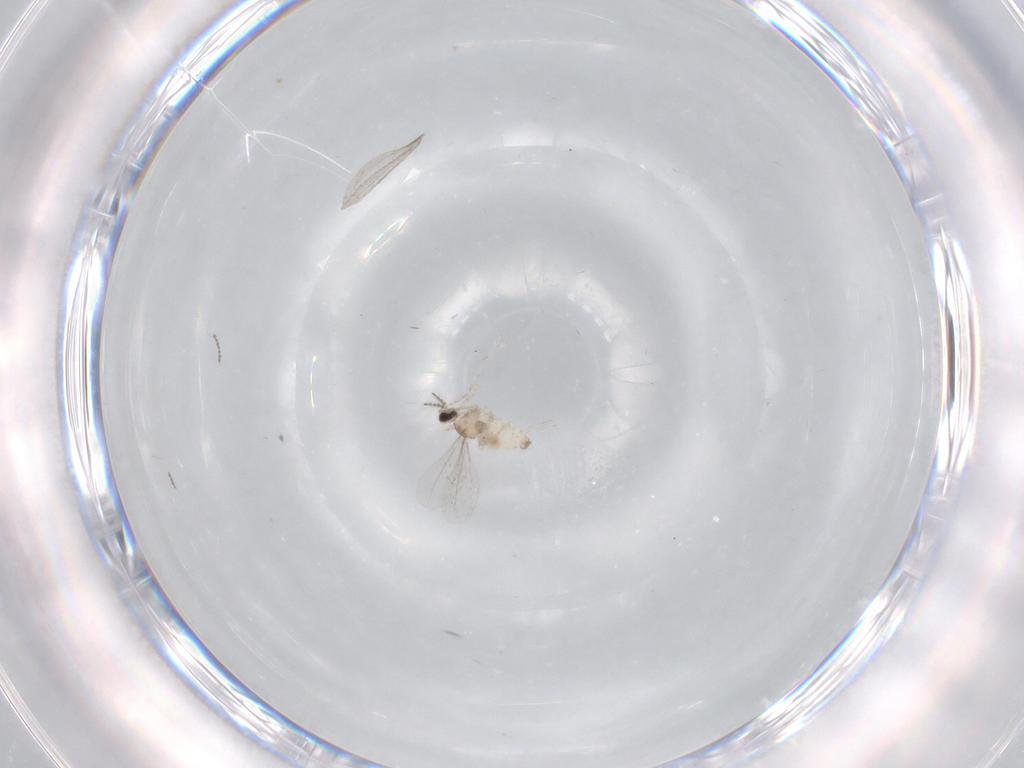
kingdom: Animalia
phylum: Arthropoda
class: Insecta
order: Diptera
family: Cecidomyiidae
